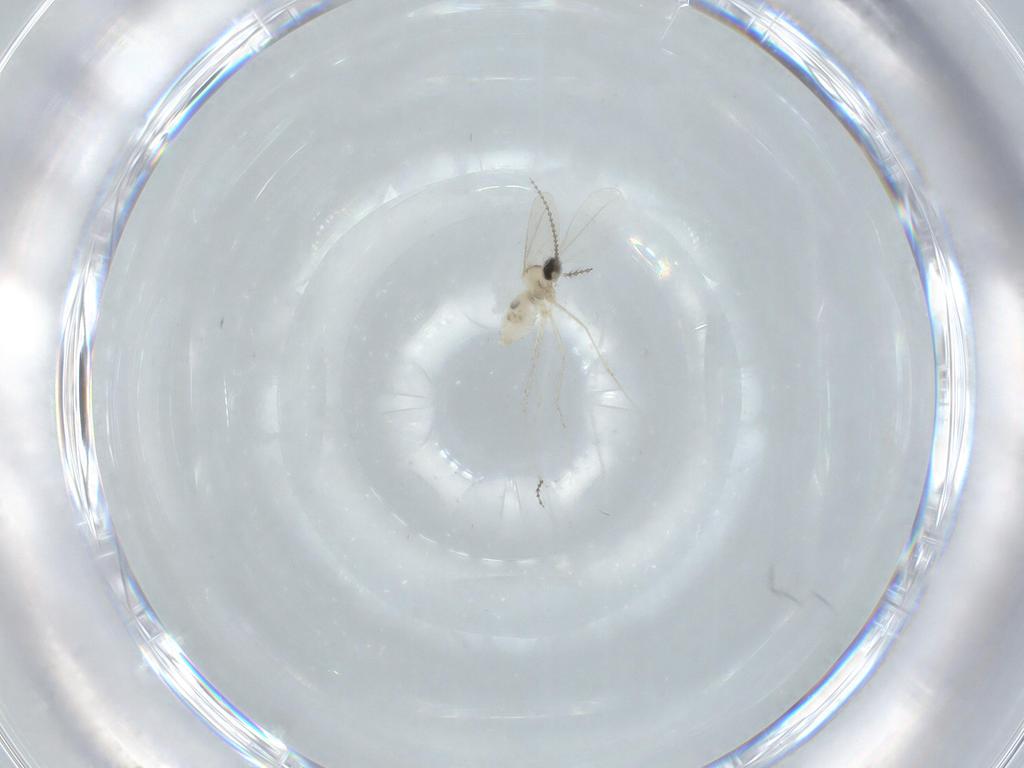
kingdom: Animalia
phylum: Arthropoda
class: Insecta
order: Diptera
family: Cecidomyiidae
